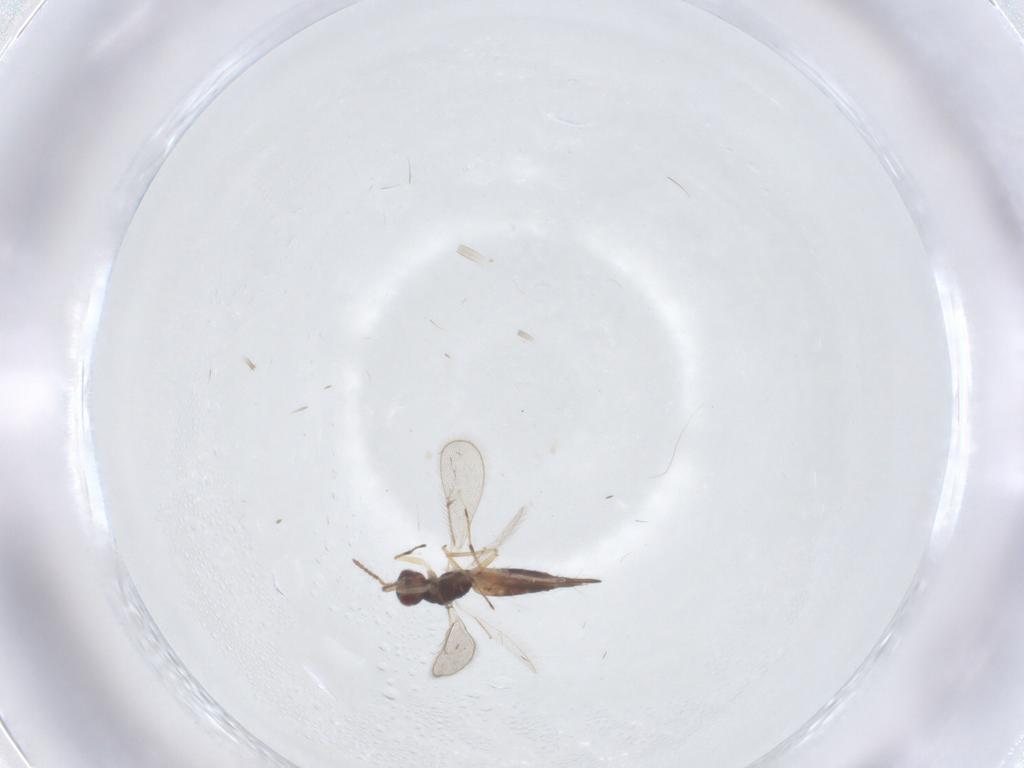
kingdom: Animalia
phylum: Arthropoda
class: Insecta
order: Hymenoptera
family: Eulophidae
